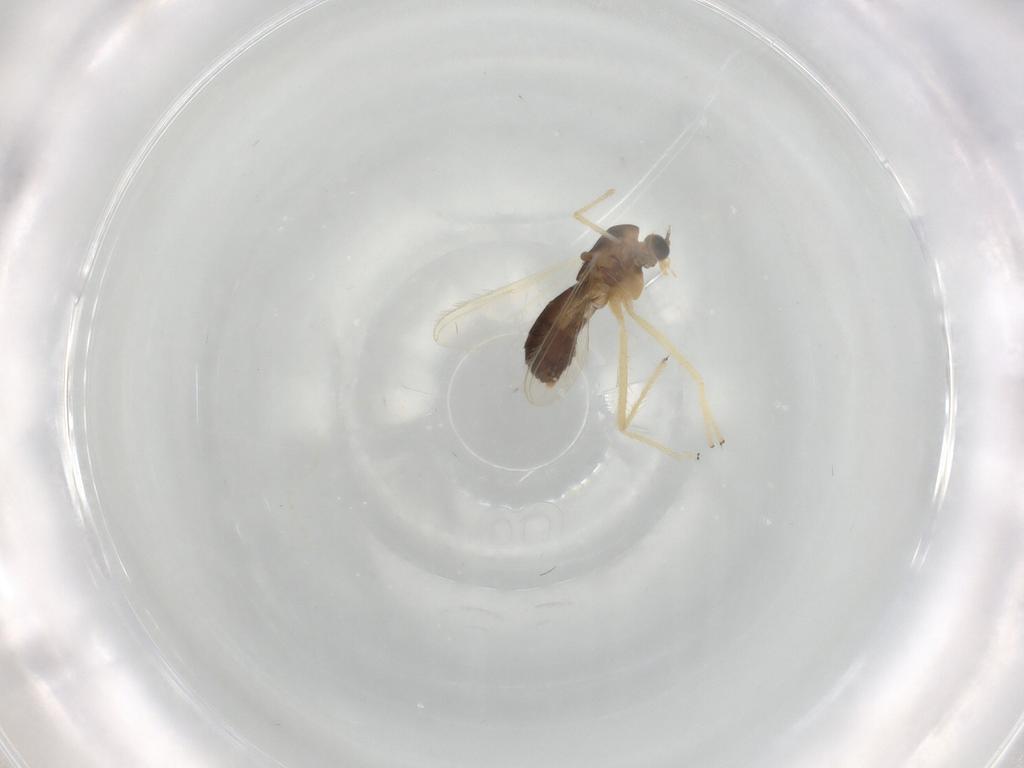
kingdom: Animalia
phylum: Arthropoda
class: Insecta
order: Diptera
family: Chironomidae
